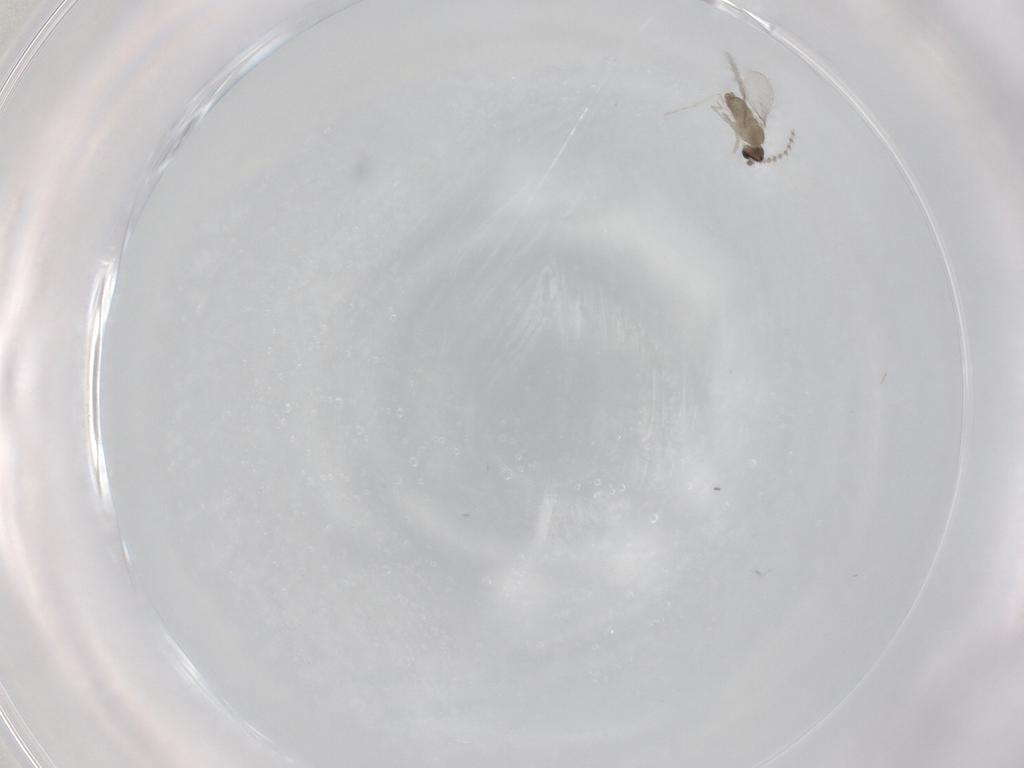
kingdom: Animalia
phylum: Arthropoda
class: Insecta
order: Diptera
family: Cecidomyiidae
